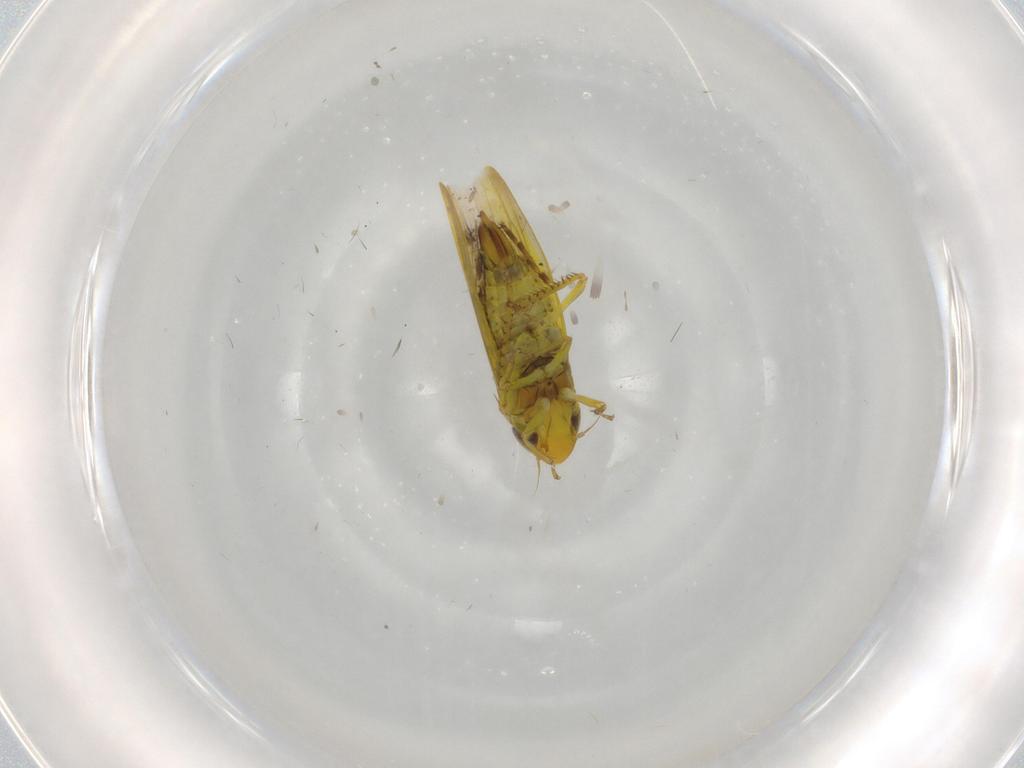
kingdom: Animalia
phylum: Arthropoda
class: Insecta
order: Hemiptera
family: Cicadellidae
